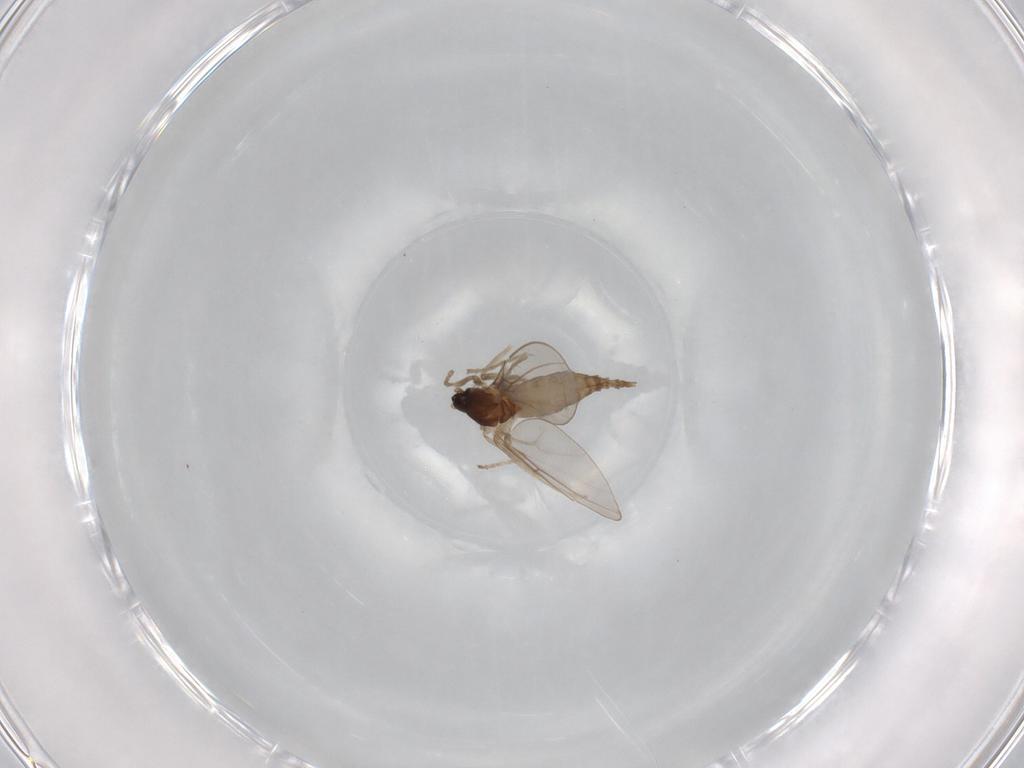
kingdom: Animalia
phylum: Arthropoda
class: Insecta
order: Diptera
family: Cecidomyiidae
